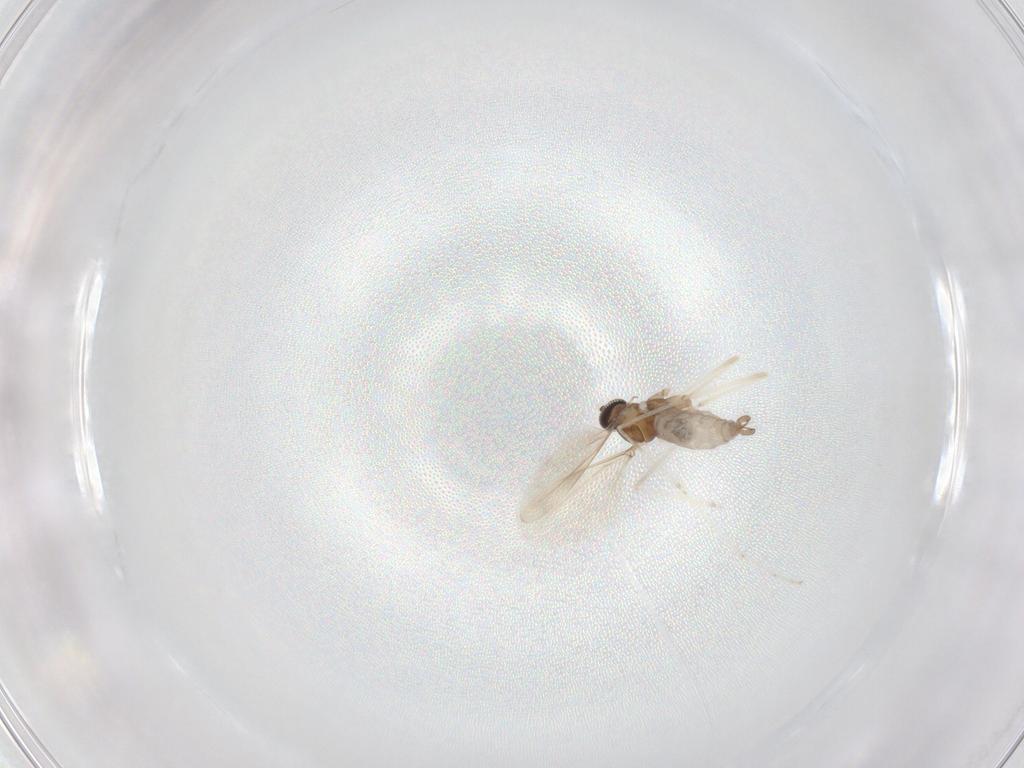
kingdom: Animalia
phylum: Arthropoda
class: Insecta
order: Diptera
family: Cecidomyiidae
